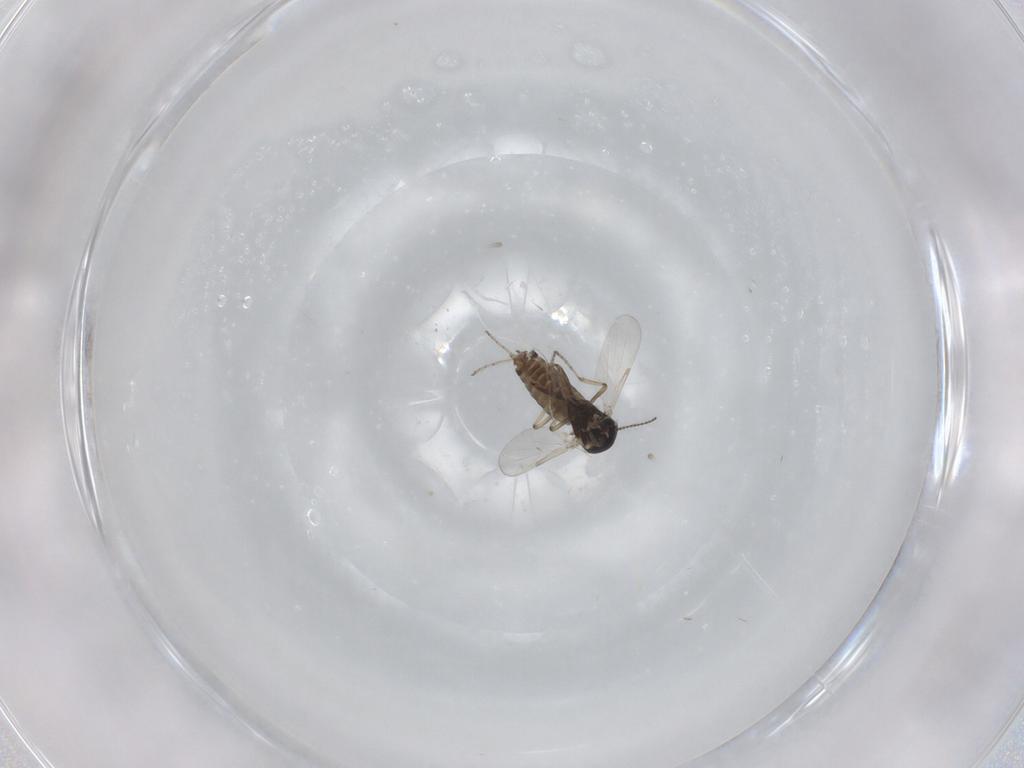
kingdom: Animalia
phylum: Arthropoda
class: Insecta
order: Diptera
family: Ceratopogonidae
